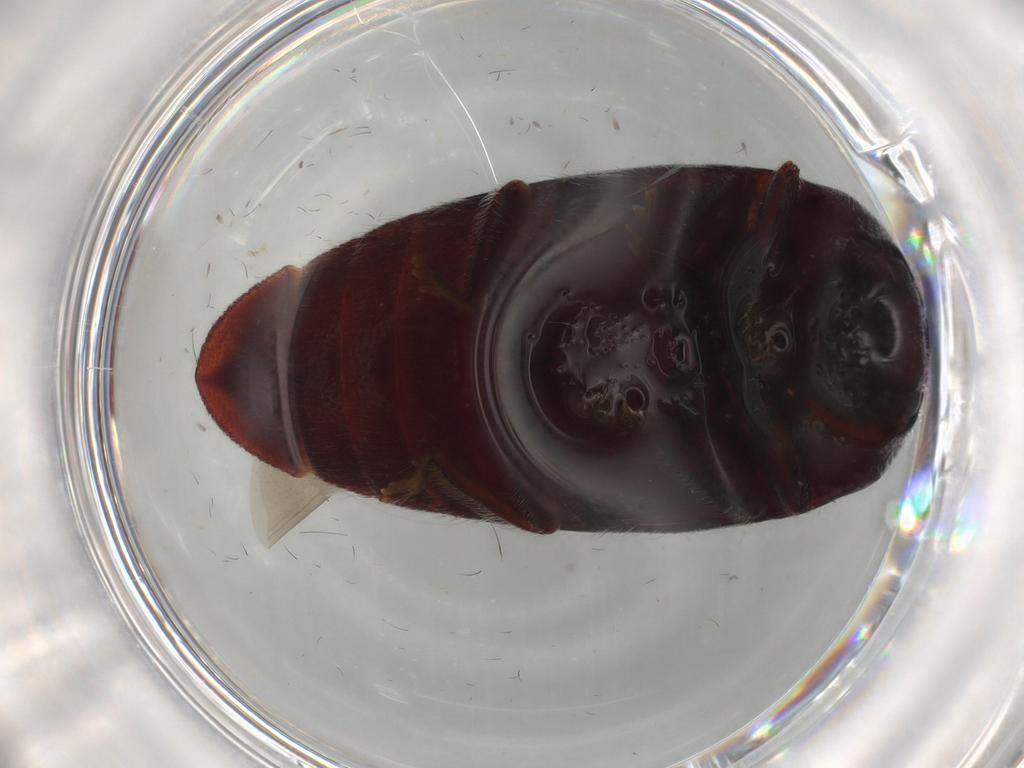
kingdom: Animalia
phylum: Arthropoda
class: Insecta
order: Coleoptera
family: Elateridae
